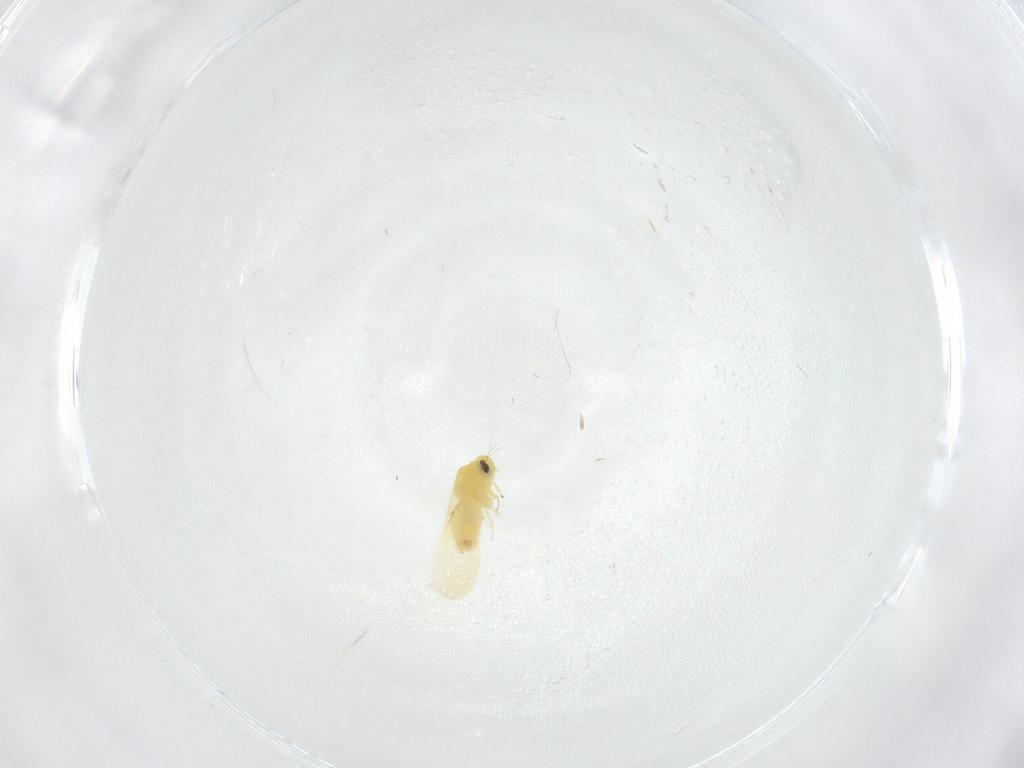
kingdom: Animalia
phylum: Arthropoda
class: Insecta
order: Hemiptera
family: Aleyrodidae
